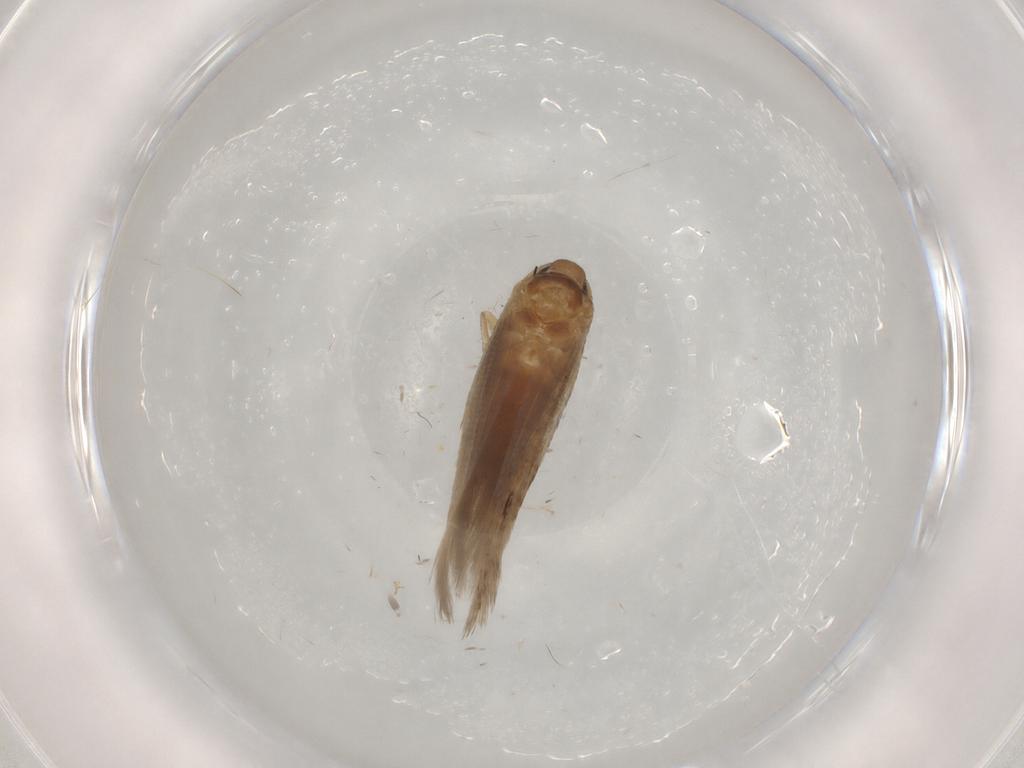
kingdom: Animalia
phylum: Arthropoda
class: Insecta
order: Lepidoptera
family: Cosmopterigidae
